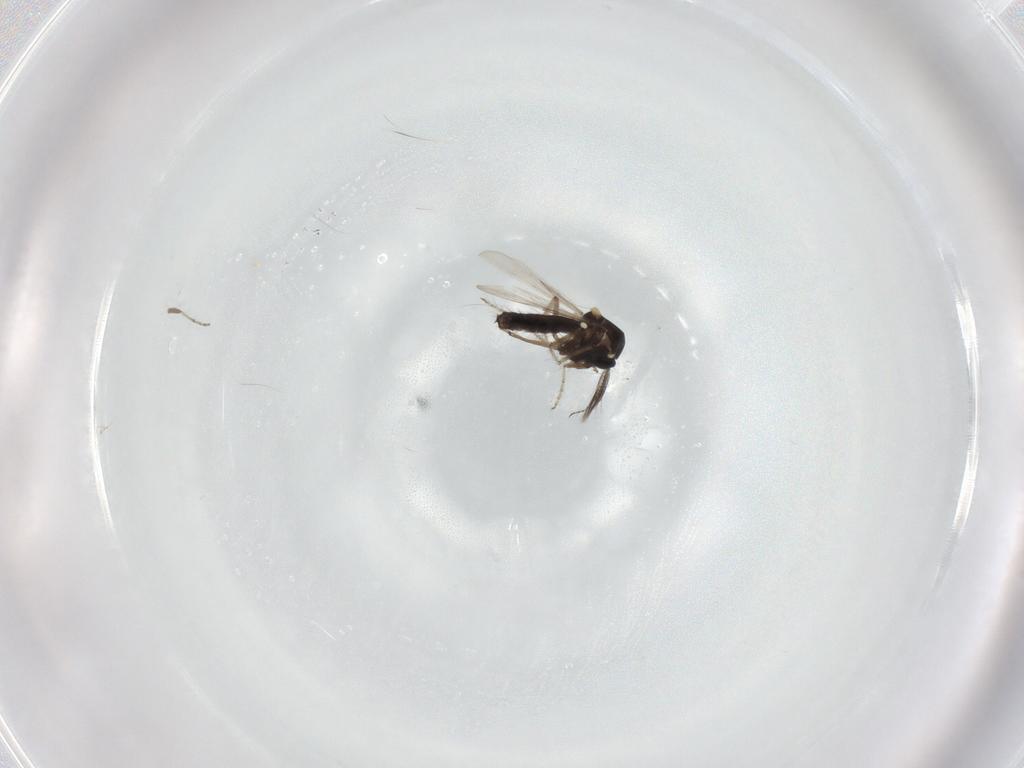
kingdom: Animalia
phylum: Arthropoda
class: Insecta
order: Diptera
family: Ceratopogonidae
